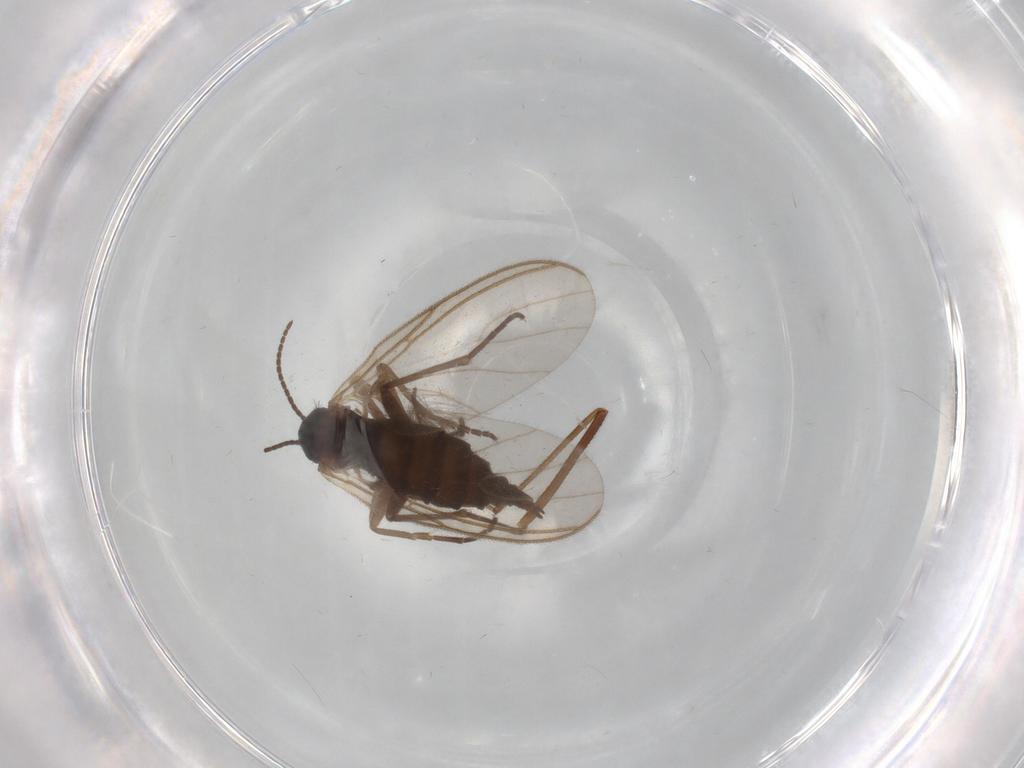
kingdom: Animalia
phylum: Arthropoda
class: Insecta
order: Diptera
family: Sciaridae
